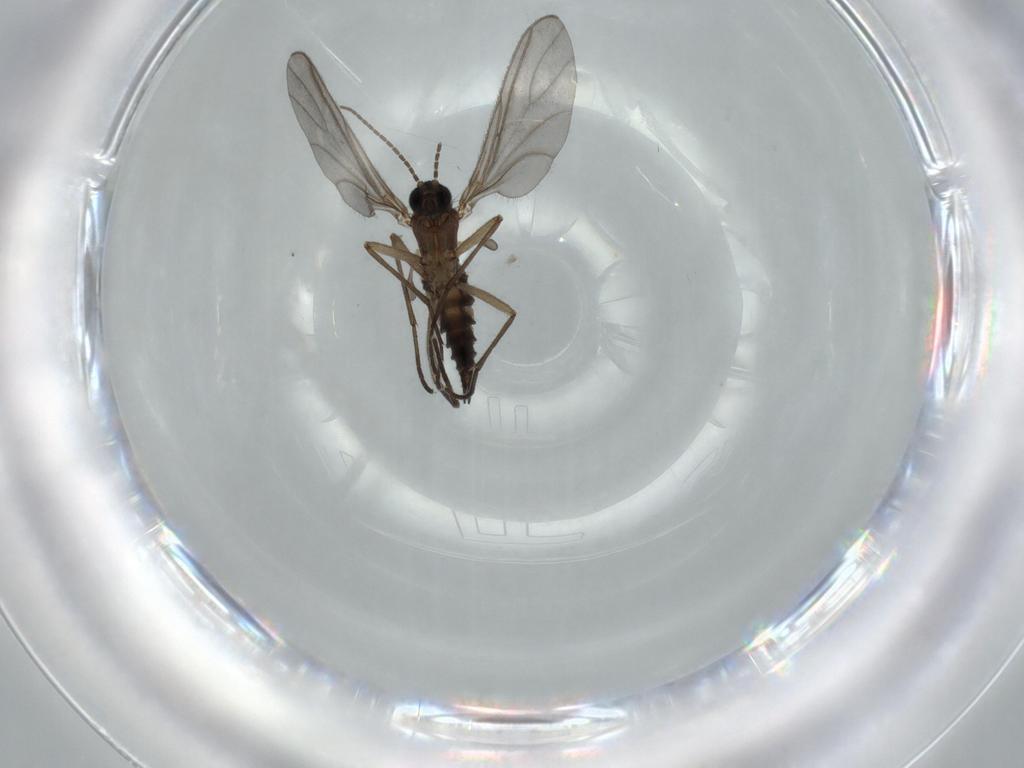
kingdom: Animalia
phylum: Arthropoda
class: Insecta
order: Diptera
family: Sciaridae
